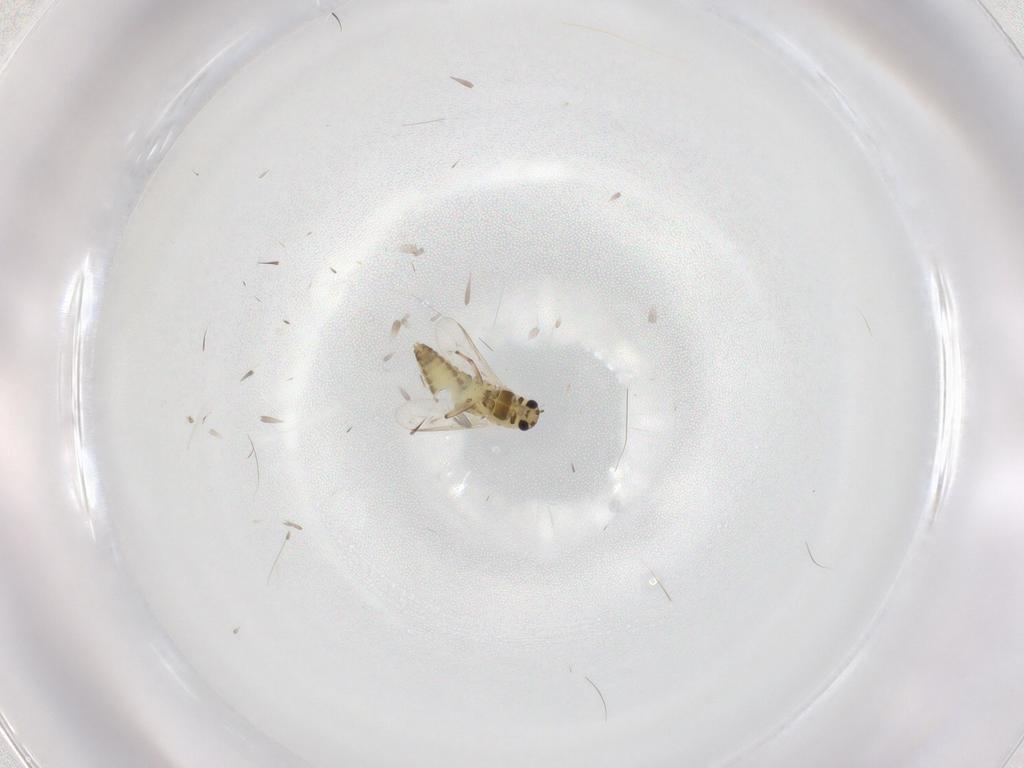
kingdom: Animalia
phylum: Arthropoda
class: Insecta
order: Diptera
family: Chironomidae
